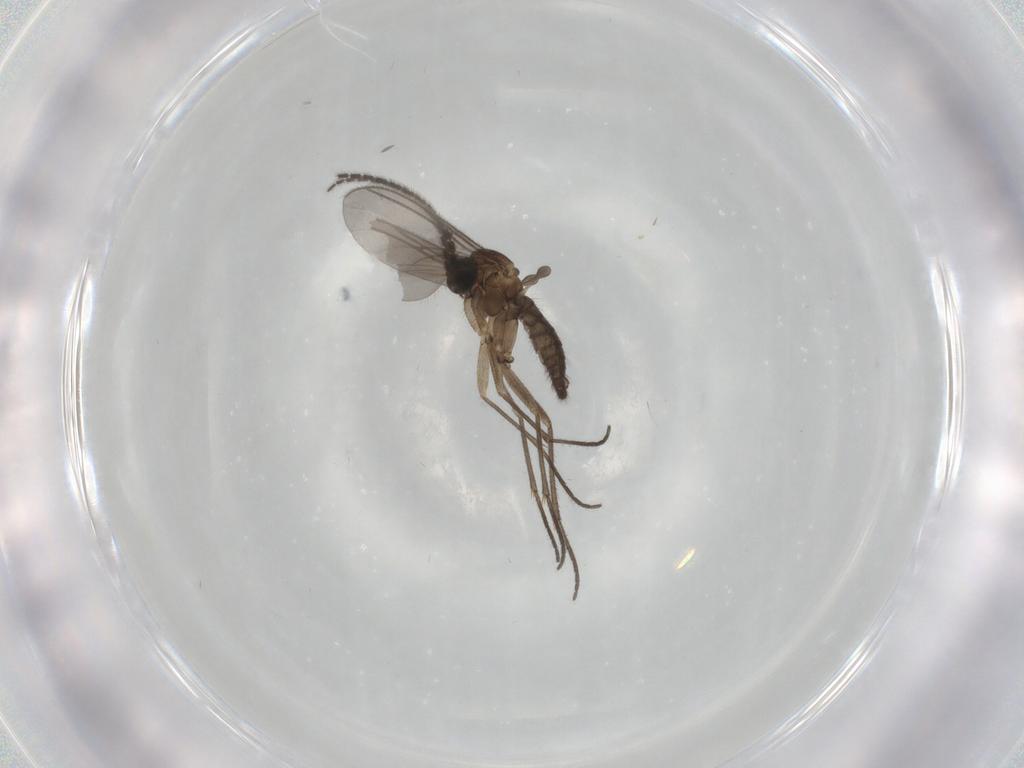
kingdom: Animalia
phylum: Arthropoda
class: Insecta
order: Diptera
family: Sciaridae
